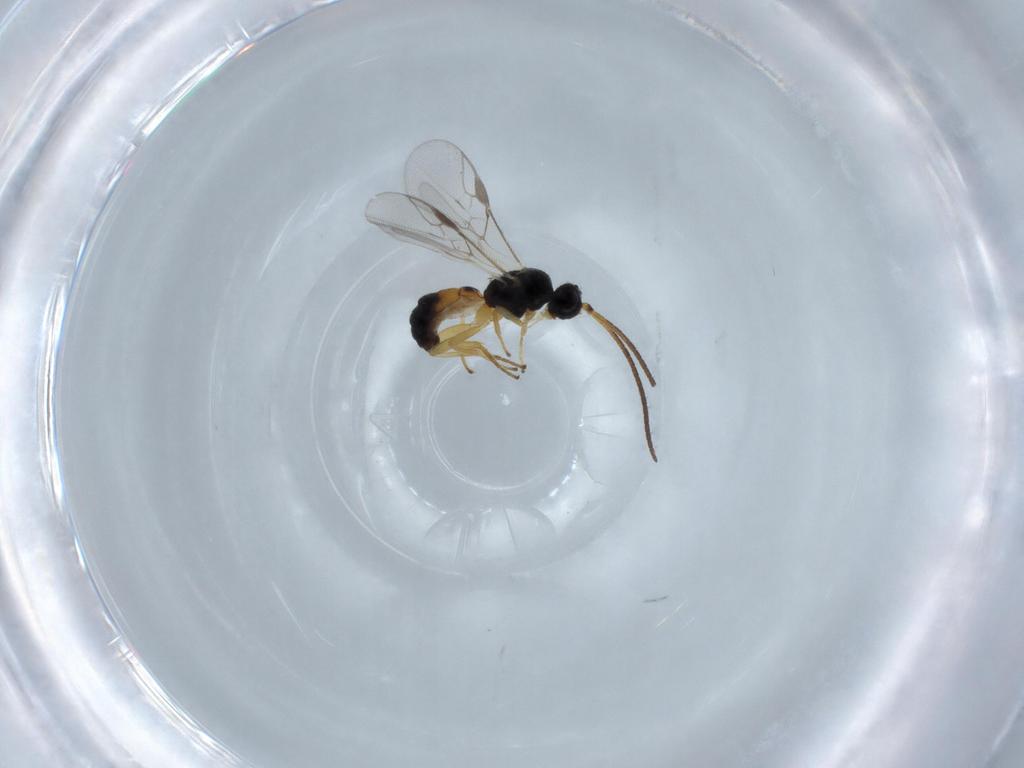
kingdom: Animalia
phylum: Arthropoda
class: Insecta
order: Hymenoptera
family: Braconidae
